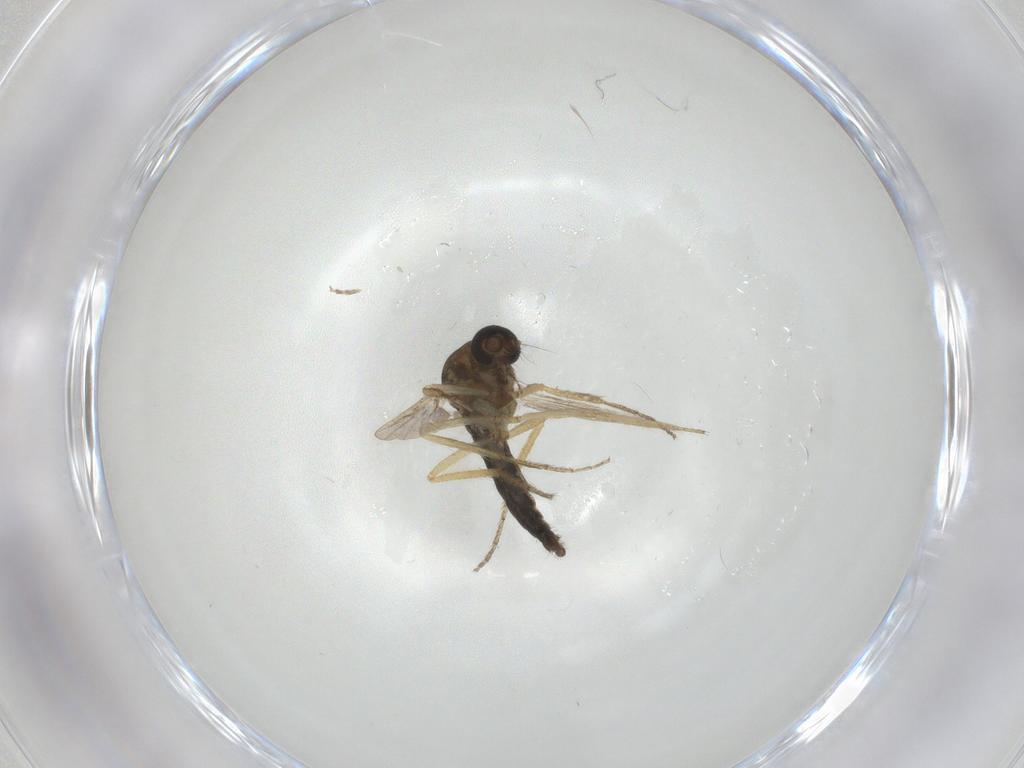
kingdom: Animalia
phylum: Arthropoda
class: Insecta
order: Diptera
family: Ceratopogonidae
